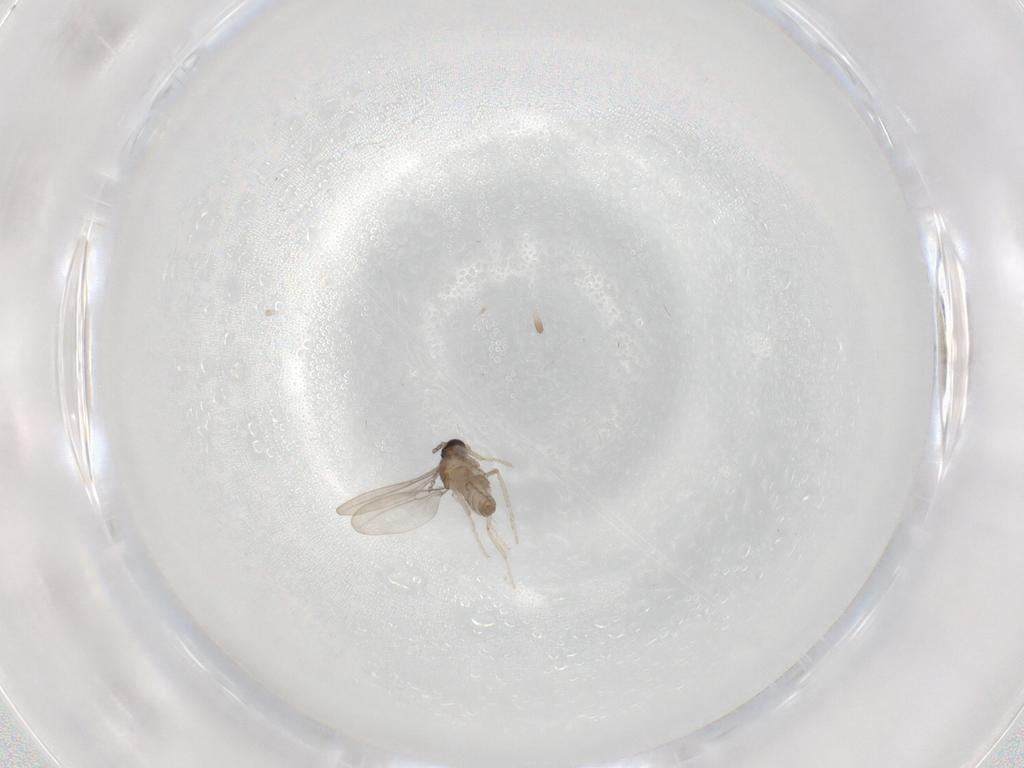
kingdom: Animalia
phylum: Arthropoda
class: Insecta
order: Diptera
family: Cecidomyiidae
